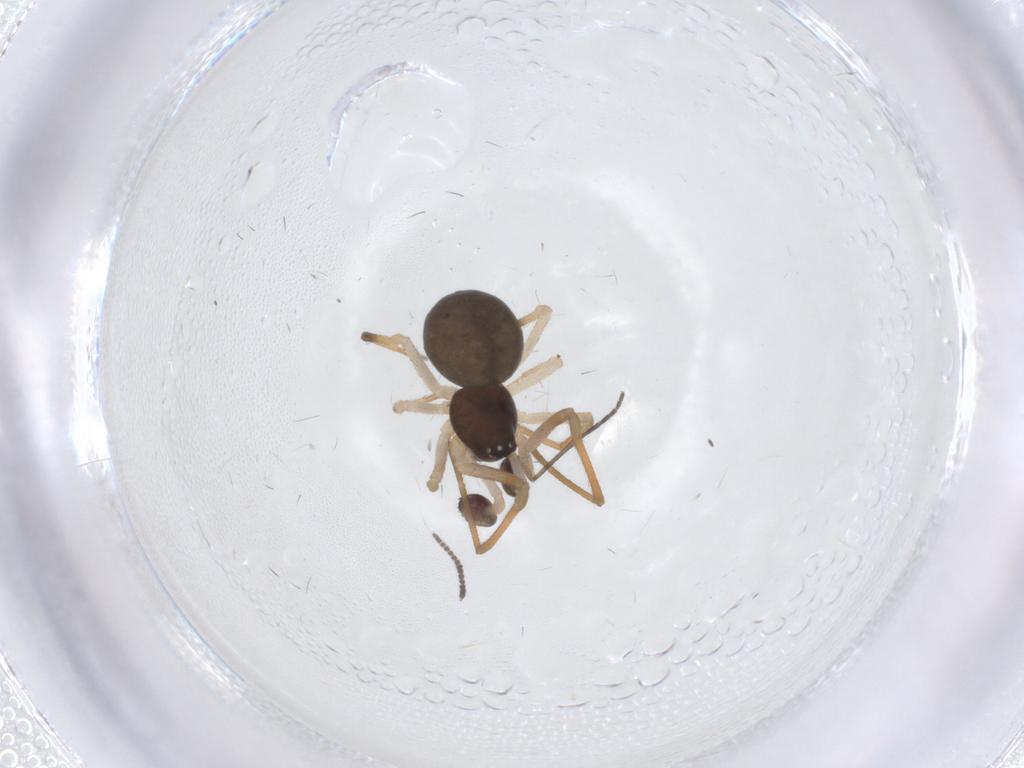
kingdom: Animalia
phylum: Arthropoda
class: Arachnida
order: Araneae
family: Theridiidae
